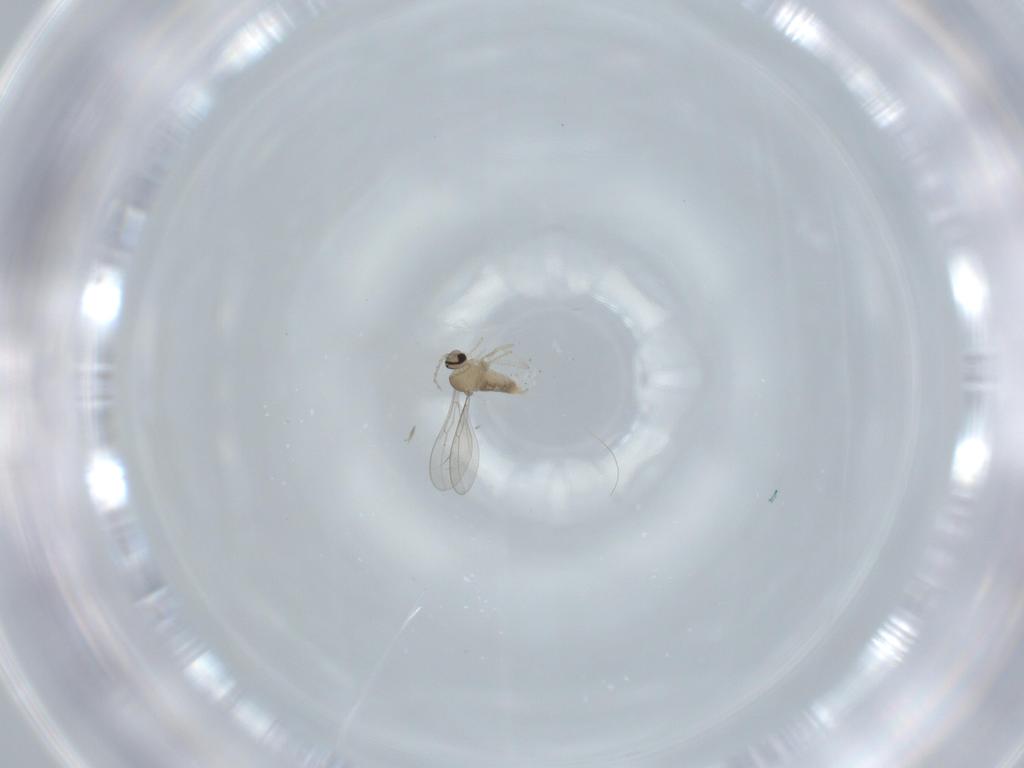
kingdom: Animalia
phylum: Arthropoda
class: Insecta
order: Diptera
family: Cecidomyiidae
